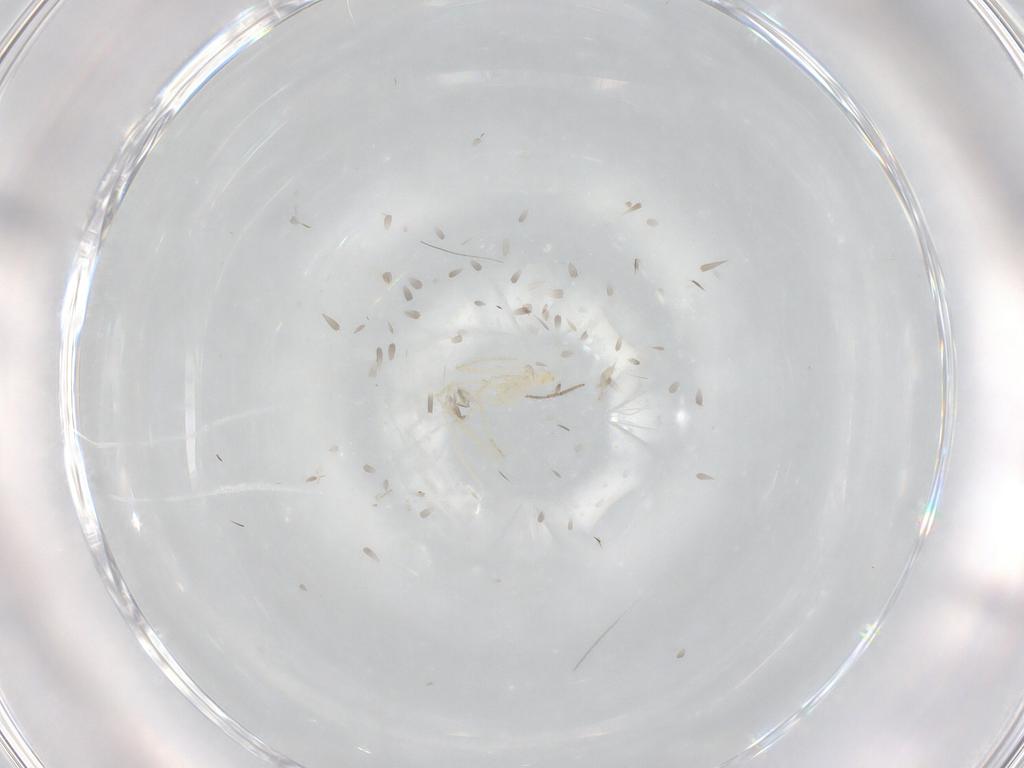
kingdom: Animalia
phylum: Arthropoda
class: Arachnida
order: Trombidiformes
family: Erythraeidae
